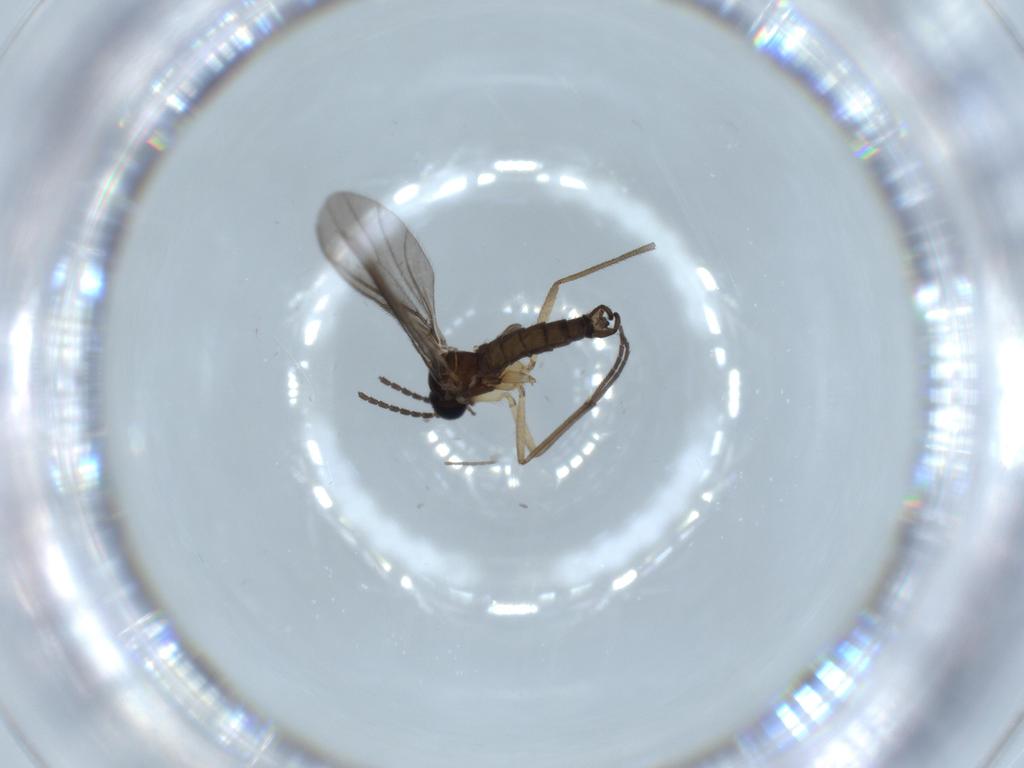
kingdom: Animalia
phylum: Arthropoda
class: Insecta
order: Diptera
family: Cecidomyiidae
